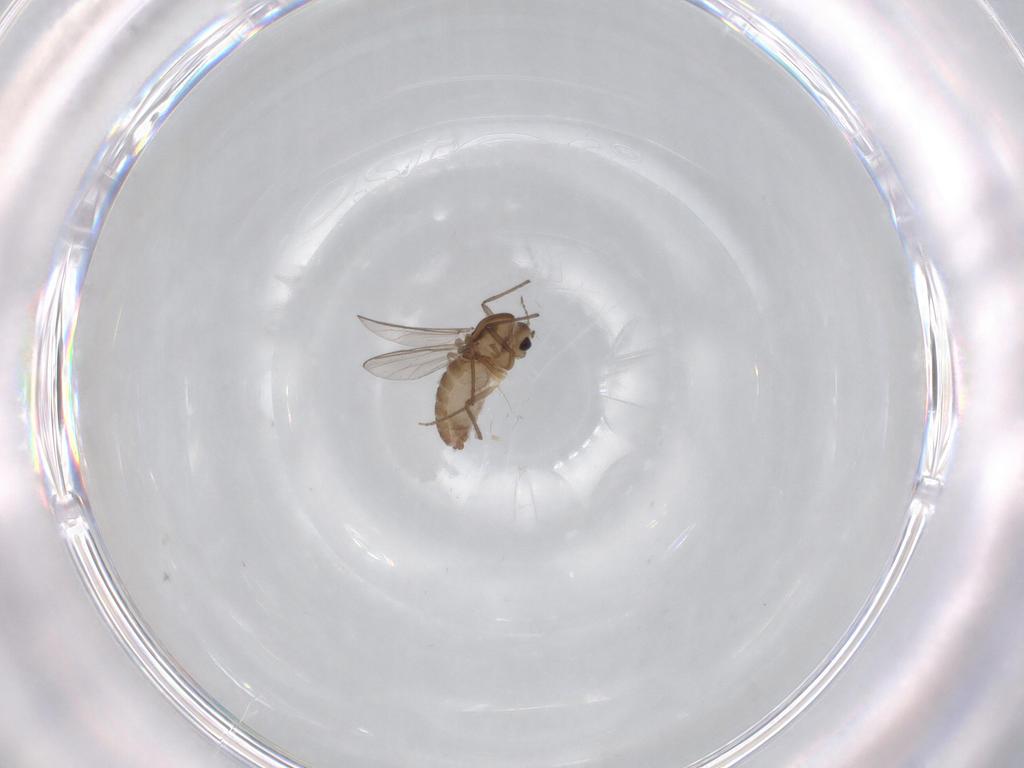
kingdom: Animalia
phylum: Arthropoda
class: Insecta
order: Diptera
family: Chironomidae
